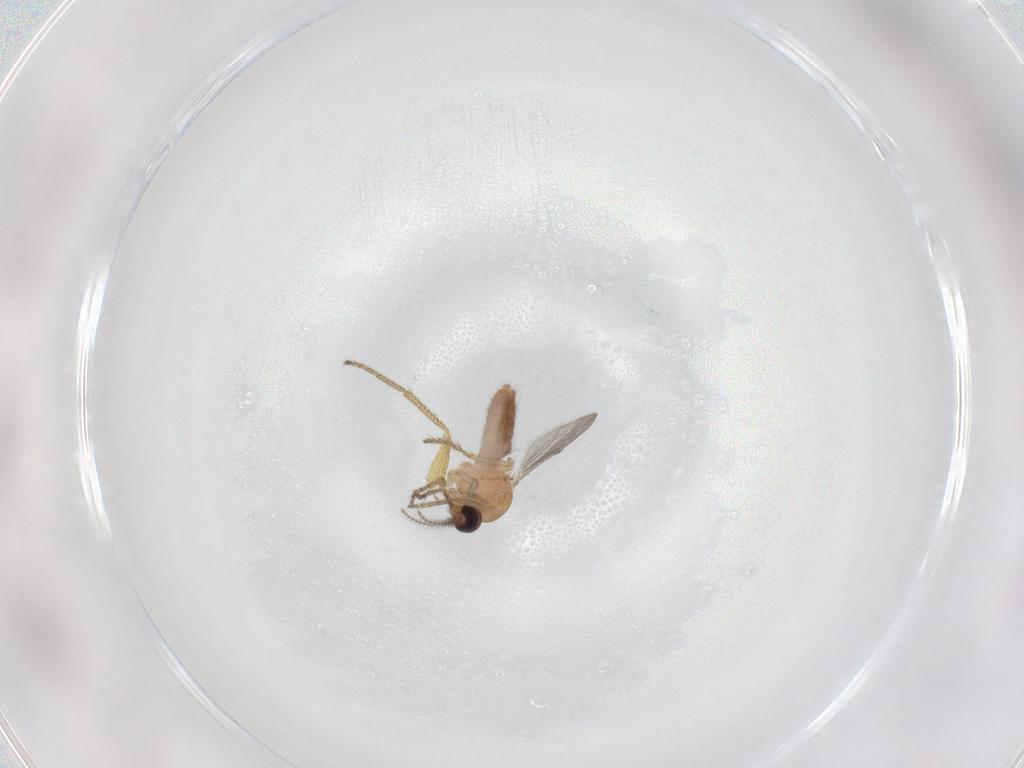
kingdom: Animalia
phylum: Arthropoda
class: Insecta
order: Diptera
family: Ceratopogonidae
